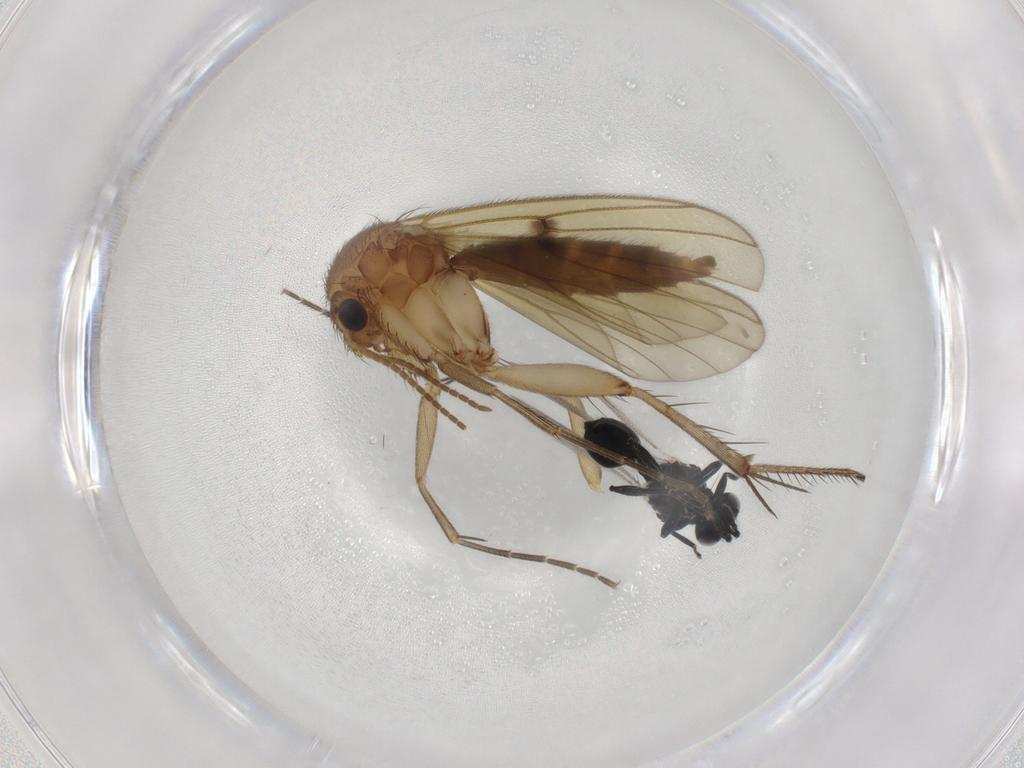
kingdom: Animalia
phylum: Arthropoda
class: Insecta
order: Diptera
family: Mycetophilidae
